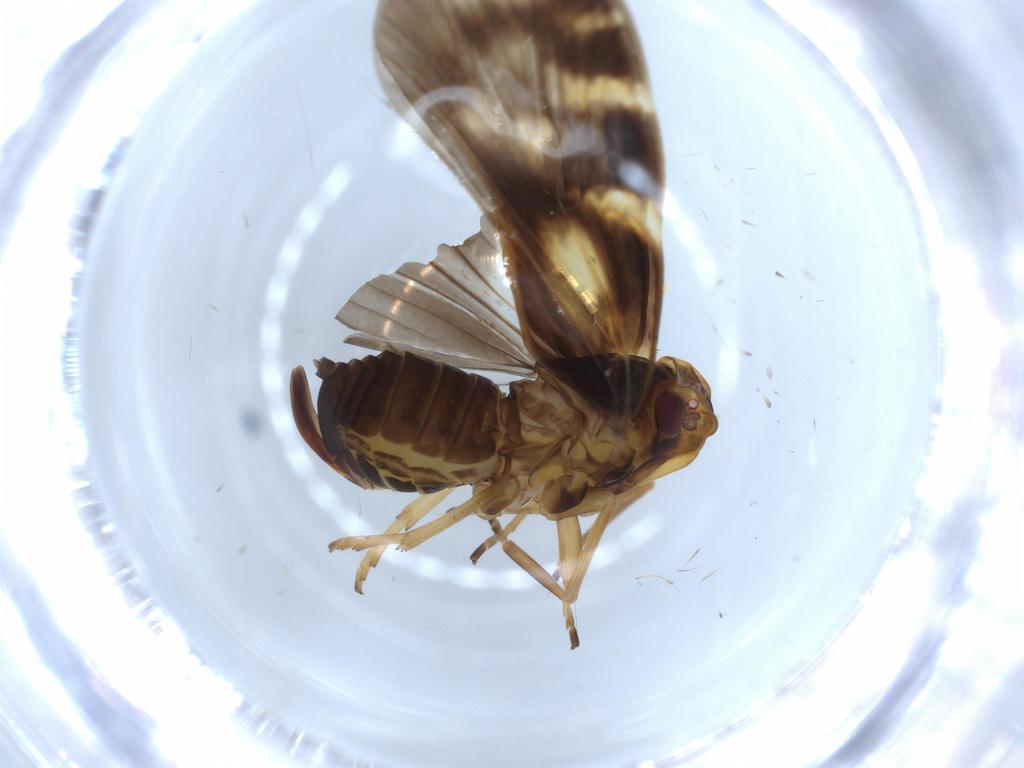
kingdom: Animalia
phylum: Arthropoda
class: Insecta
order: Hemiptera
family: Cixiidae
